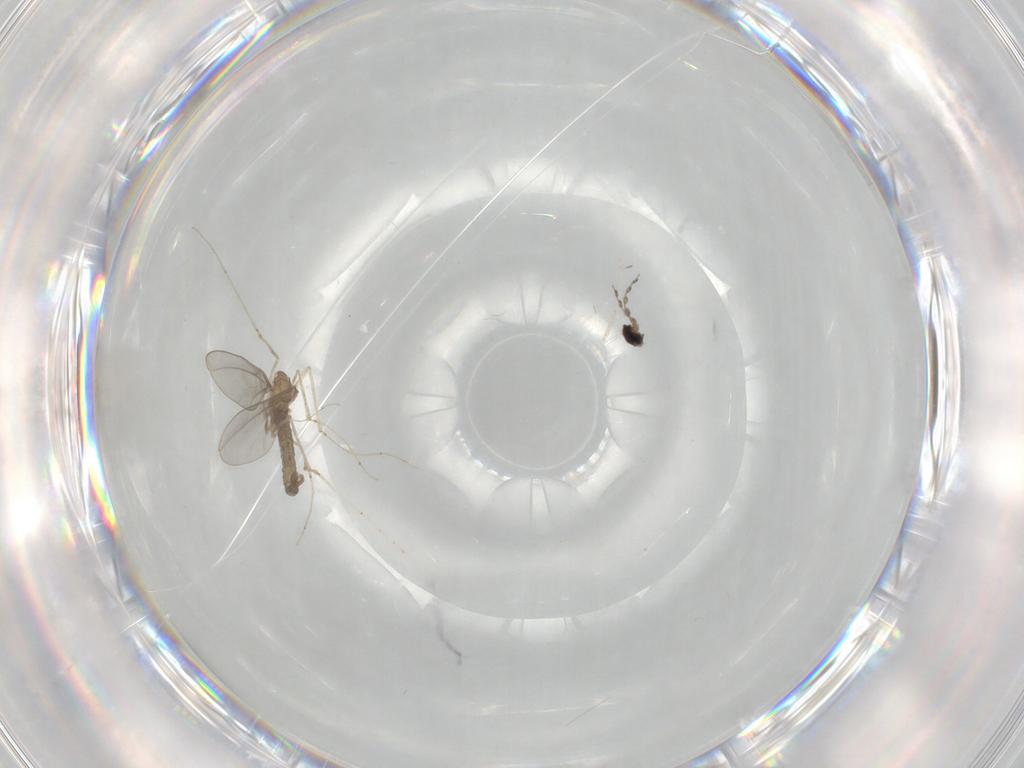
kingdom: Animalia
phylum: Arthropoda
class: Insecta
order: Diptera
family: Cecidomyiidae
